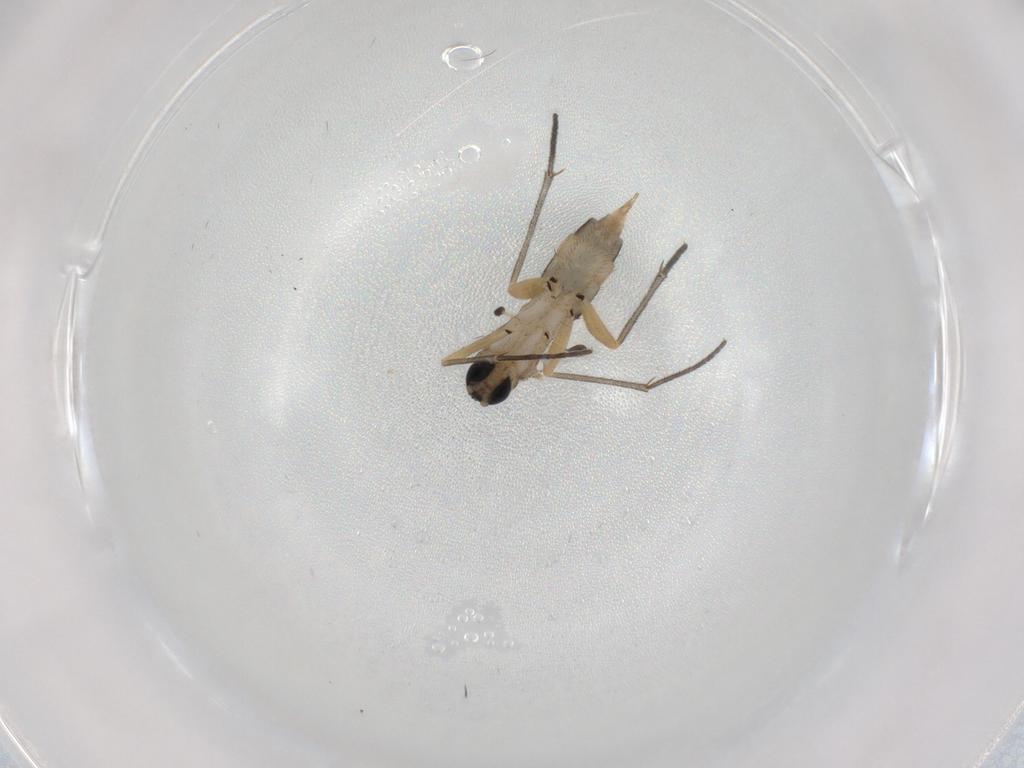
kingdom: Animalia
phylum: Arthropoda
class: Insecta
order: Diptera
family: Sciaridae
